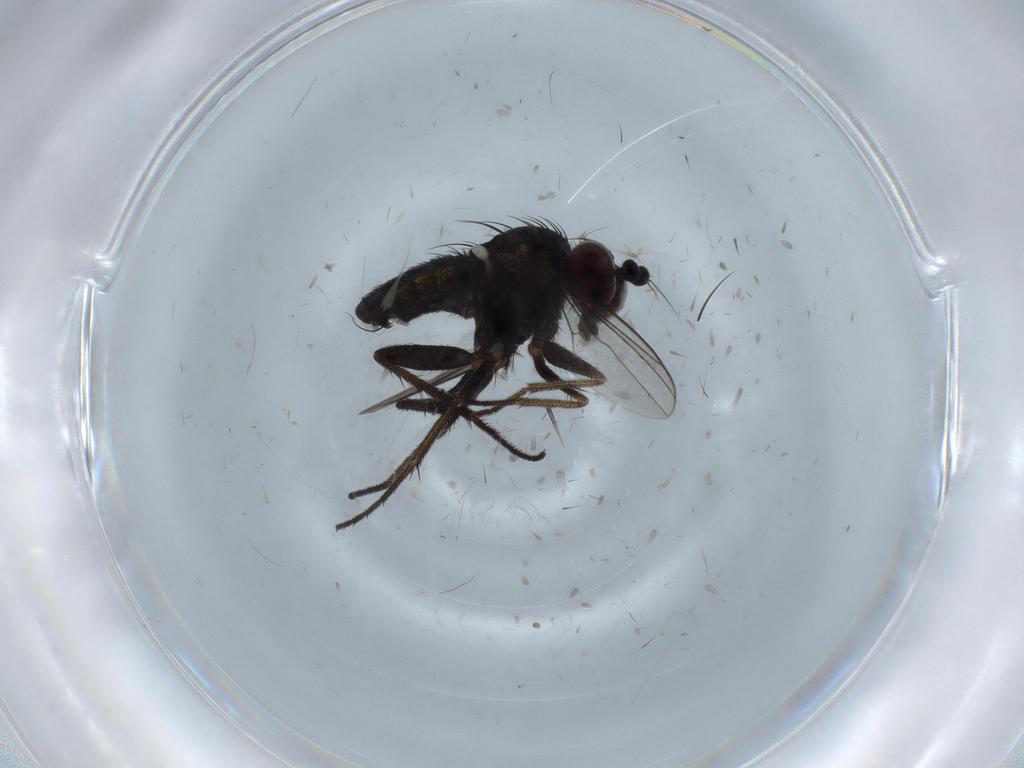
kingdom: Animalia
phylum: Arthropoda
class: Insecta
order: Diptera
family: Dolichopodidae
